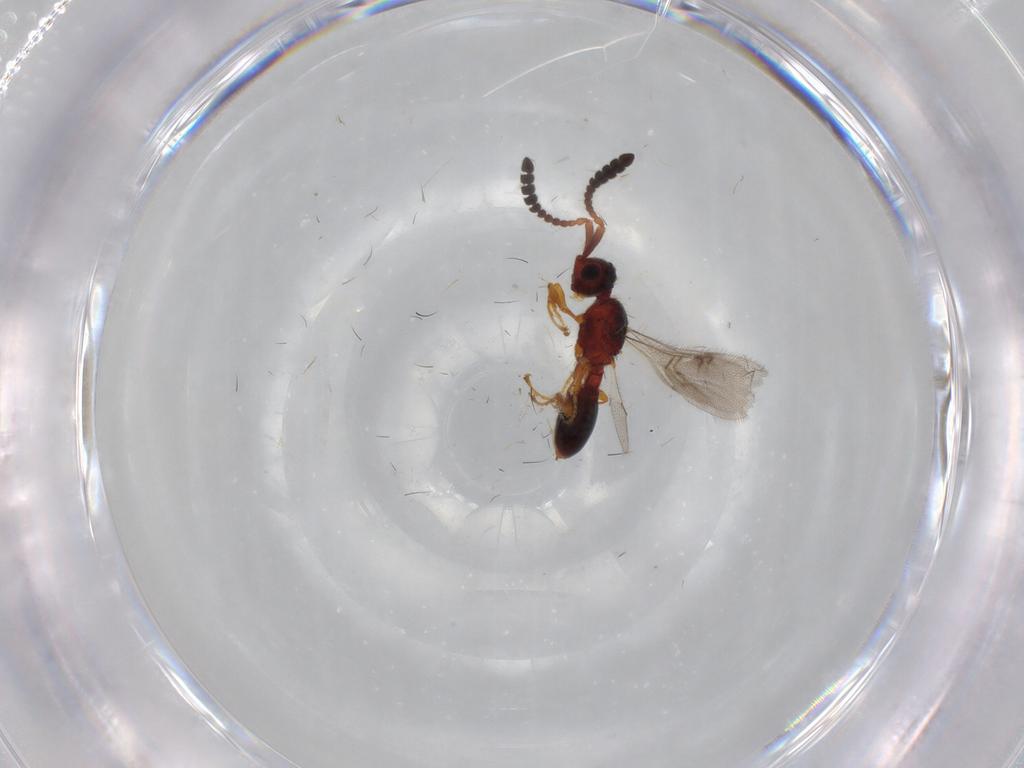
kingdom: Animalia
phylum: Arthropoda
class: Insecta
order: Hymenoptera
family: Diapriidae
